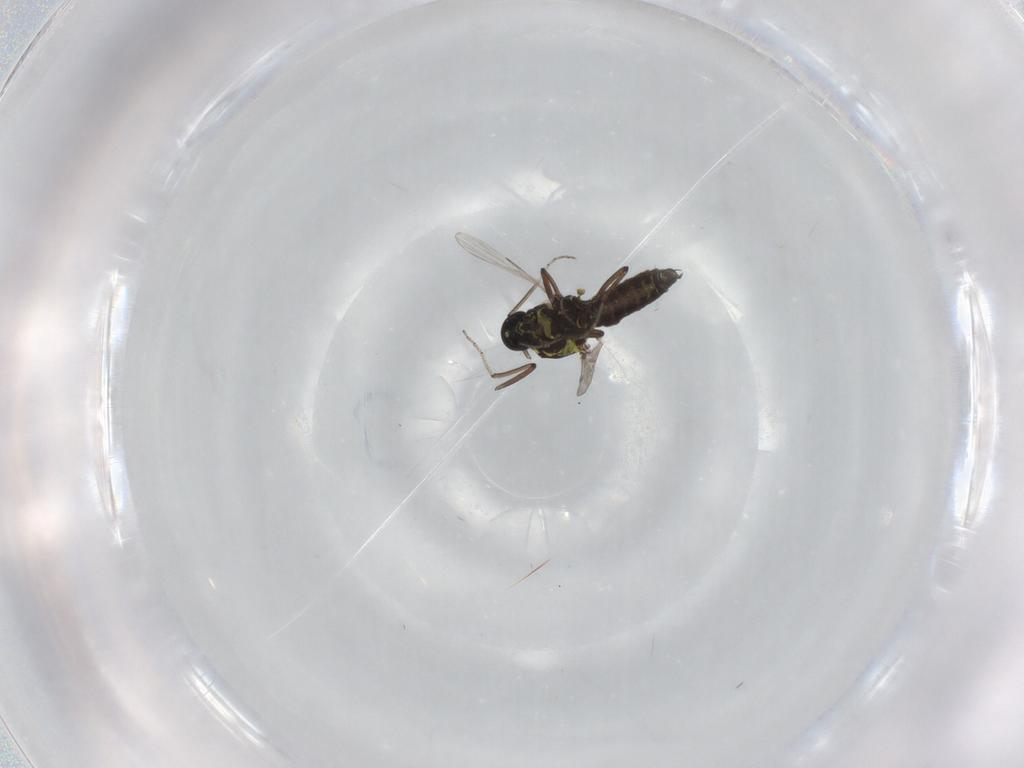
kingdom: Animalia
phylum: Arthropoda
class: Insecta
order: Diptera
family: Ceratopogonidae
